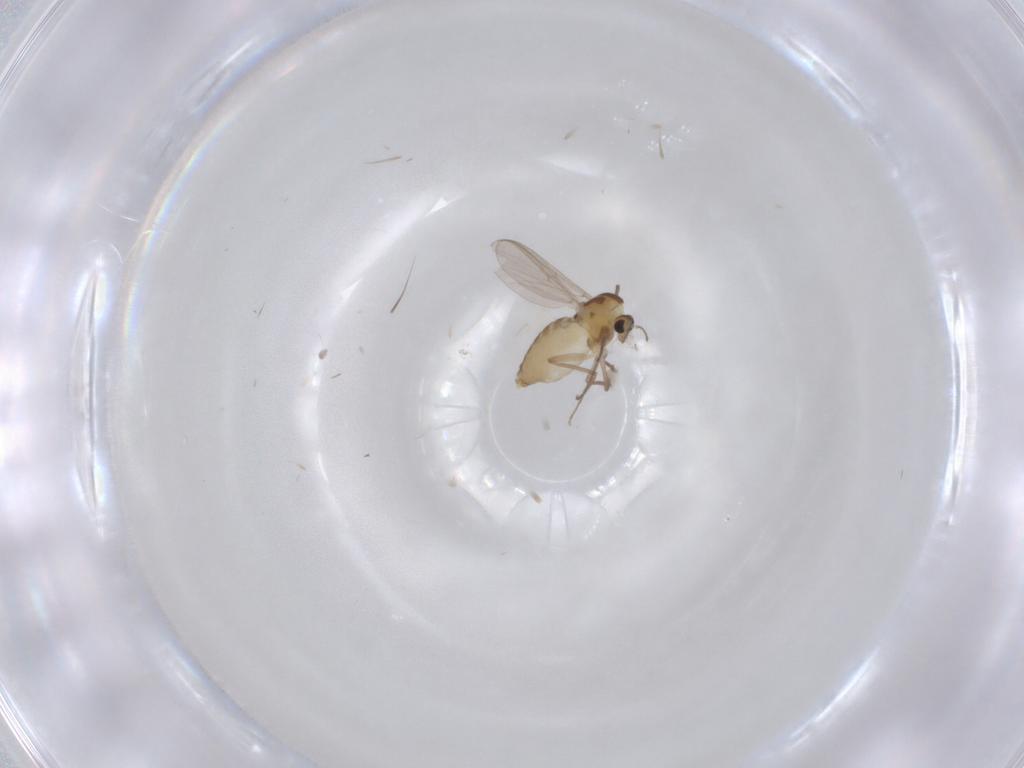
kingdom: Animalia
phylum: Arthropoda
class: Insecta
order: Diptera
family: Chironomidae
